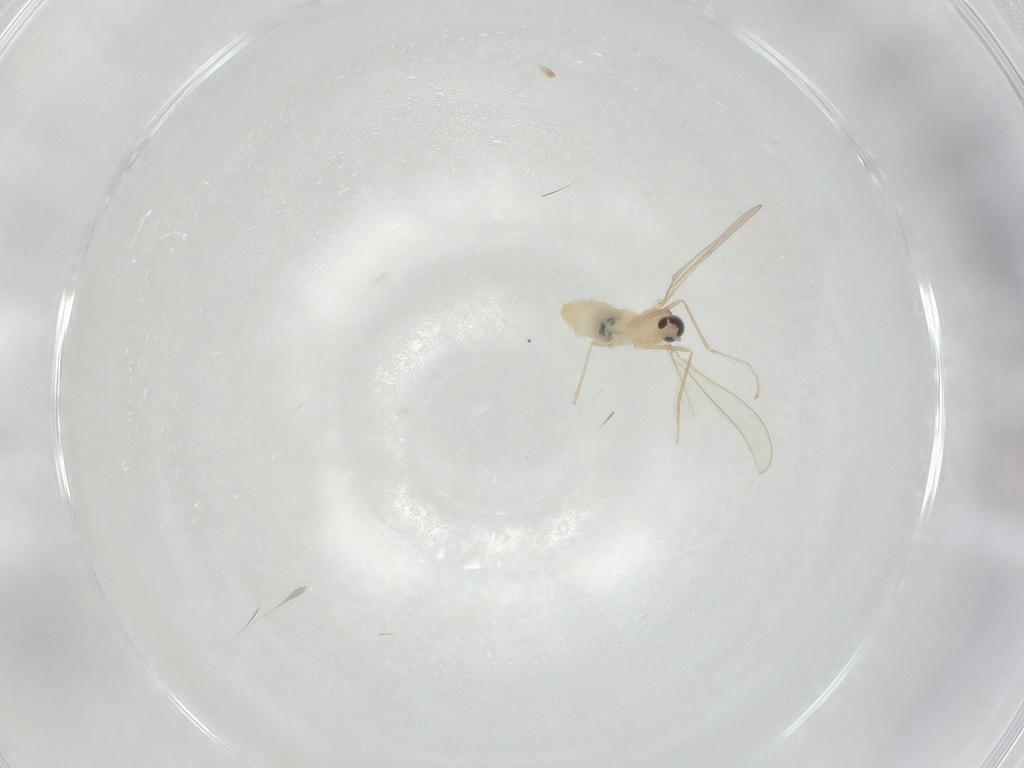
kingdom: Animalia
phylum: Arthropoda
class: Insecta
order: Diptera
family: Cecidomyiidae
